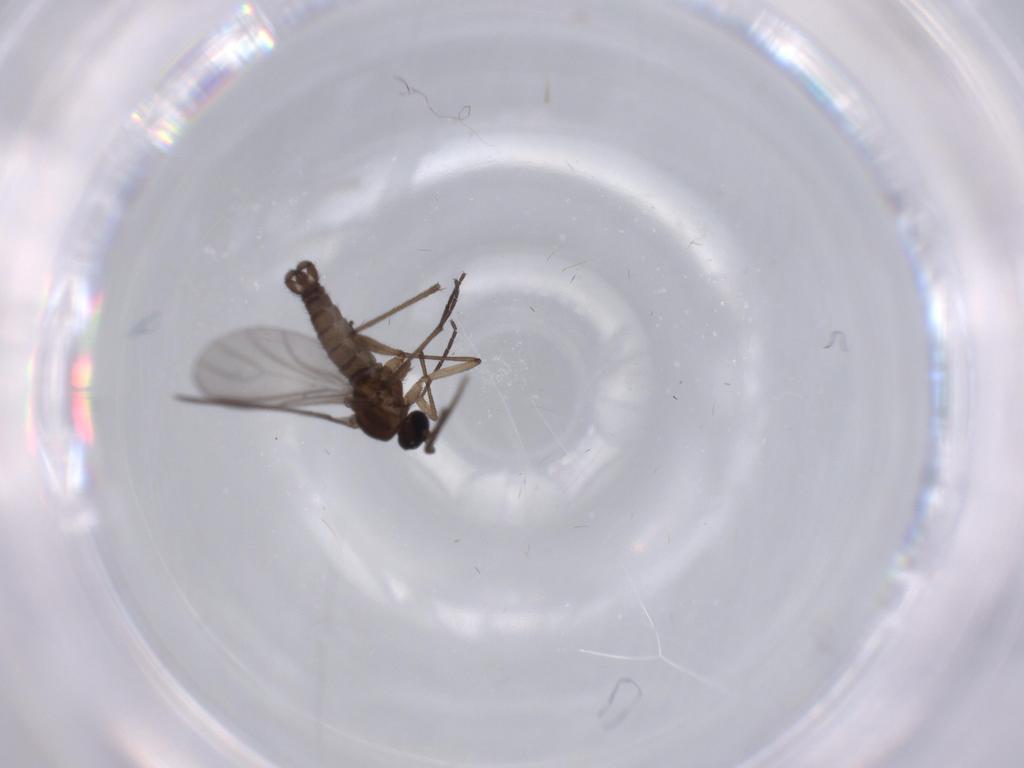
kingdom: Animalia
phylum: Arthropoda
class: Insecta
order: Diptera
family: Sciaridae
